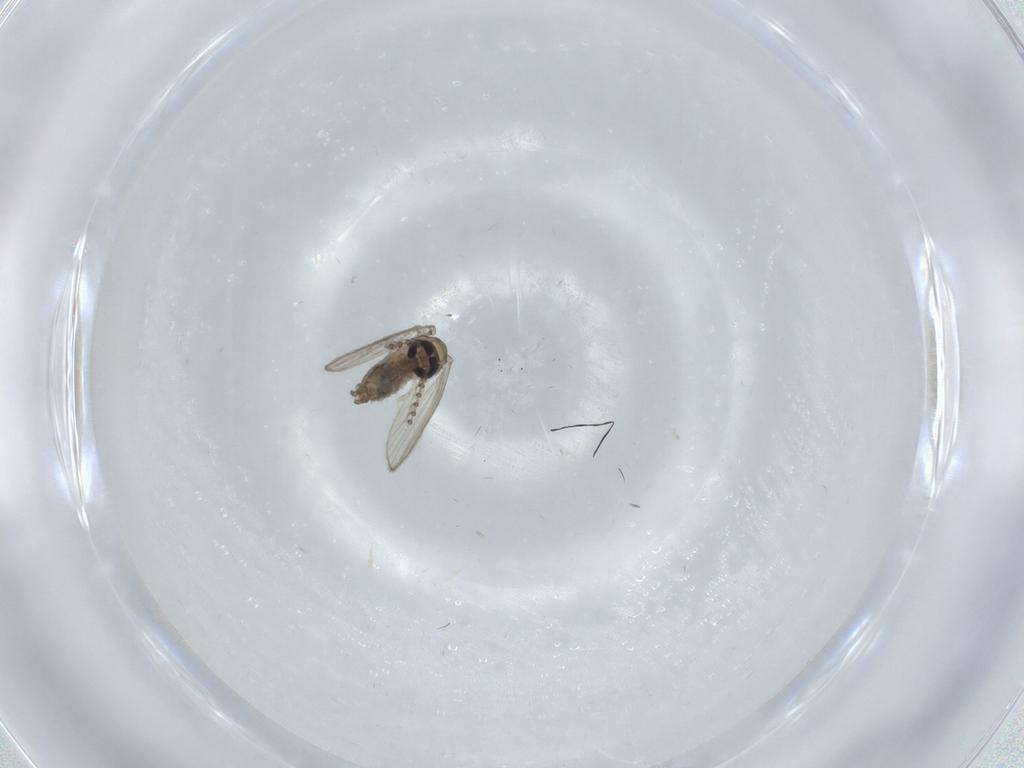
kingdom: Animalia
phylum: Arthropoda
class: Insecta
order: Diptera
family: Psychodidae
